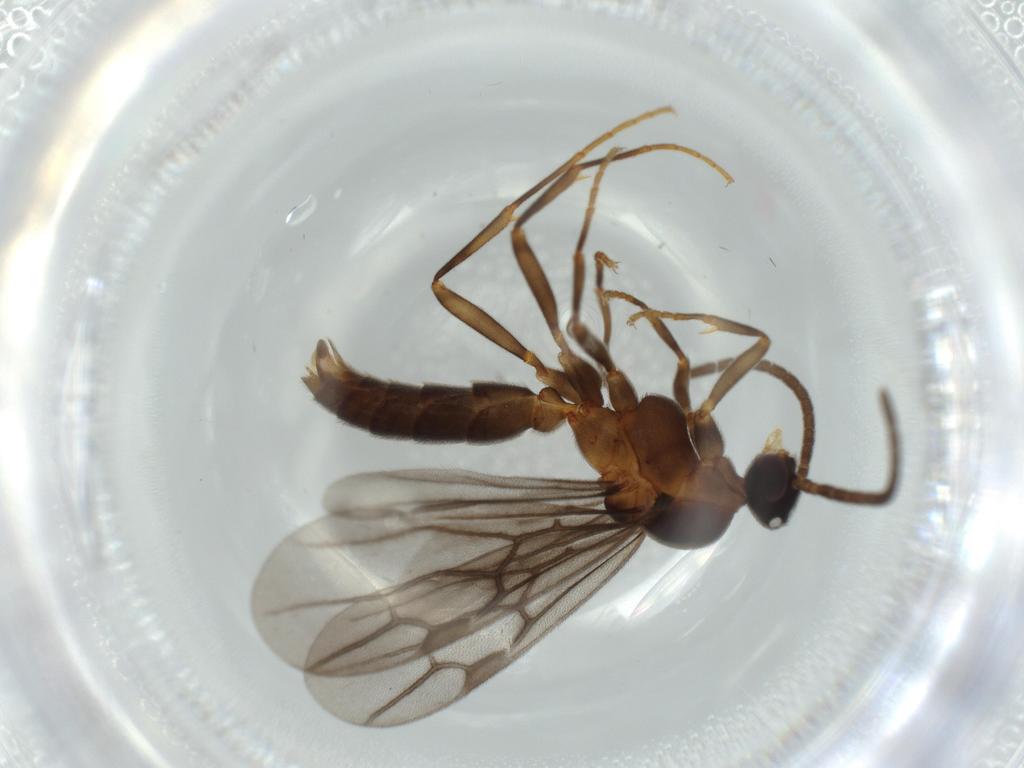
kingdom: Animalia
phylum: Arthropoda
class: Insecta
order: Hymenoptera
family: Formicidae
